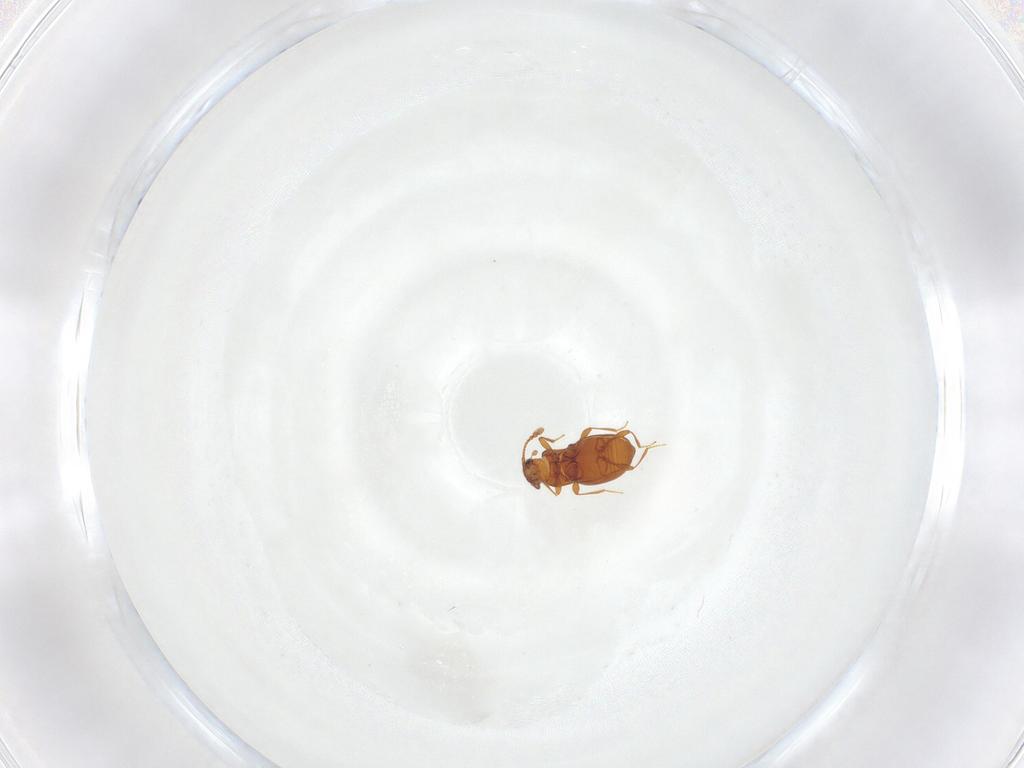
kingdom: Animalia
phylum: Arthropoda
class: Insecta
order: Coleoptera
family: Staphylinidae
